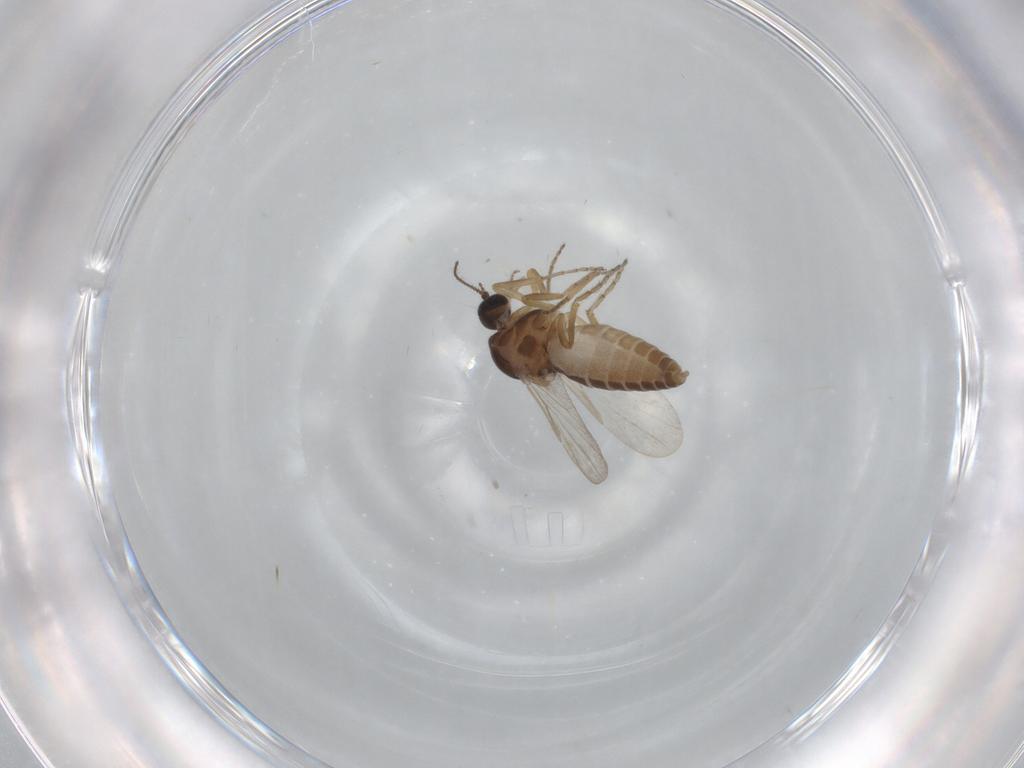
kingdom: Animalia
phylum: Arthropoda
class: Insecta
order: Diptera
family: Ceratopogonidae
